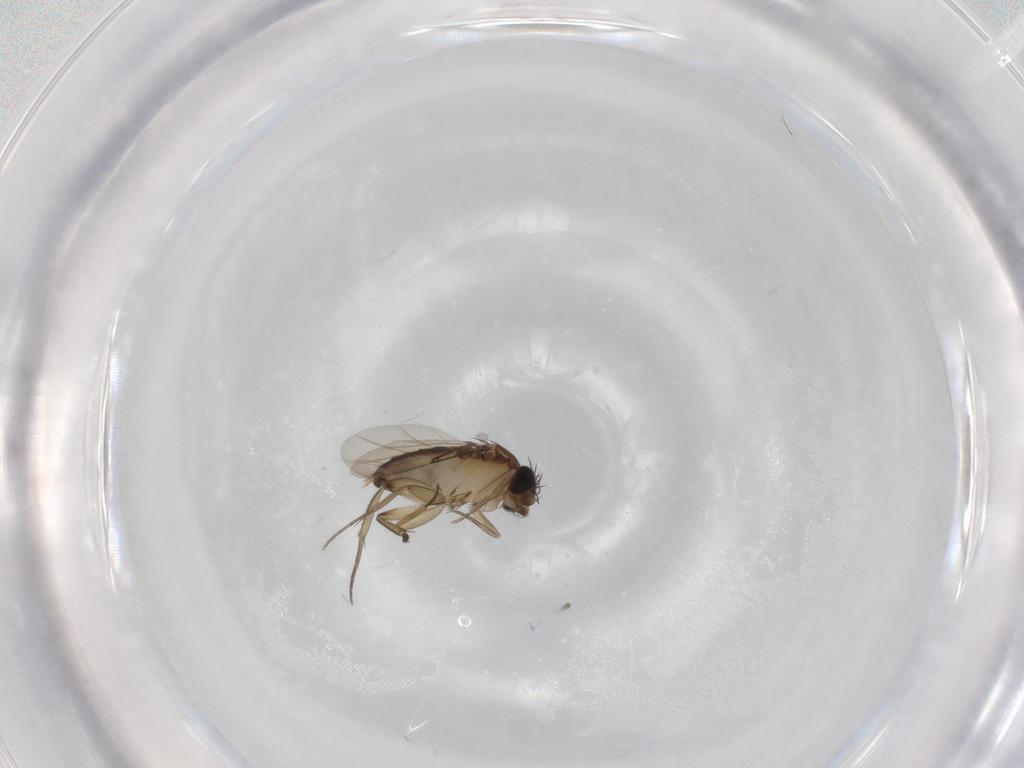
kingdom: Animalia
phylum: Arthropoda
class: Insecta
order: Diptera
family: Phoridae
